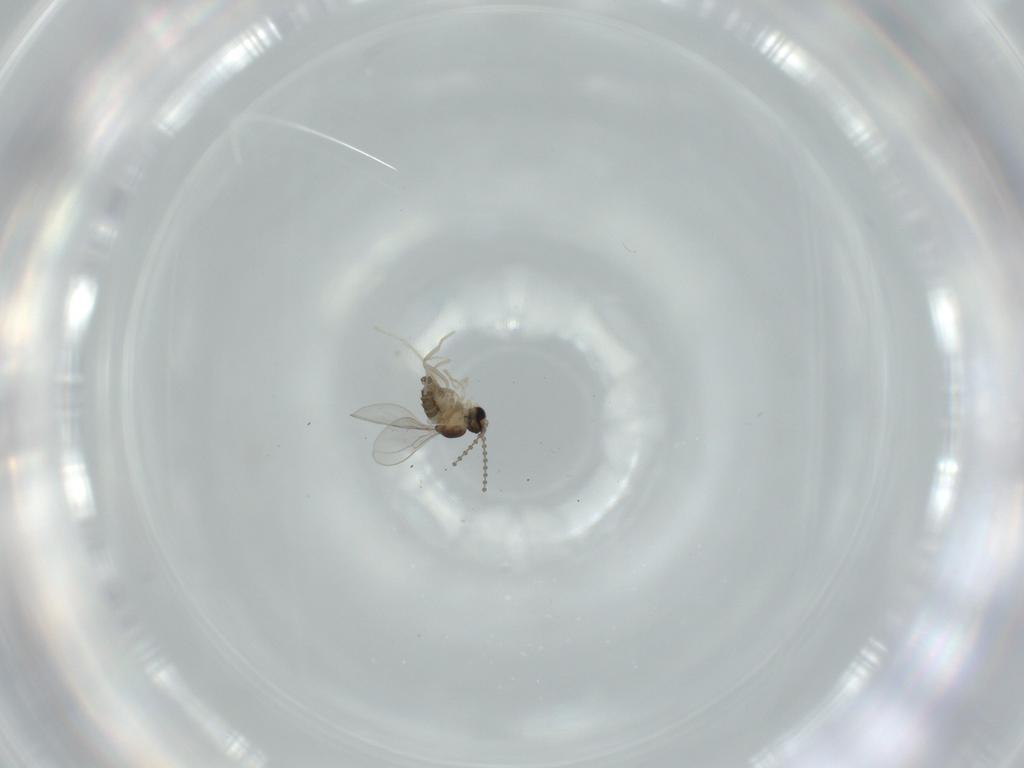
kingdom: Animalia
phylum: Arthropoda
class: Insecta
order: Diptera
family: Cecidomyiidae
